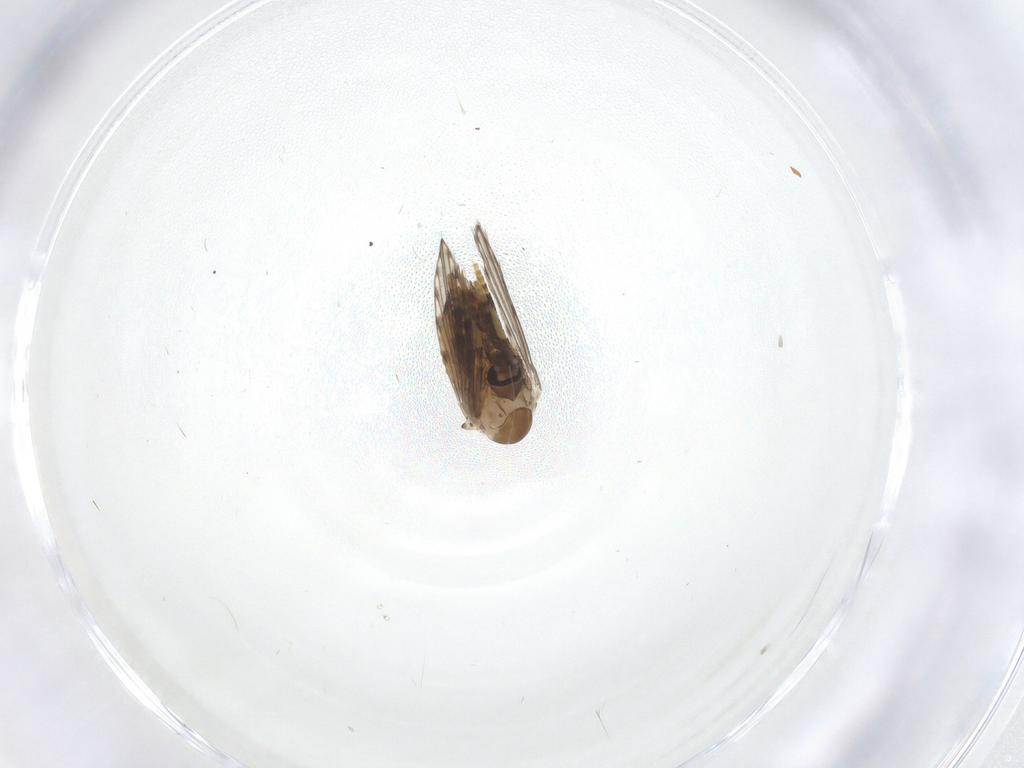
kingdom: Animalia
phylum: Arthropoda
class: Insecta
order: Diptera
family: Psychodidae
